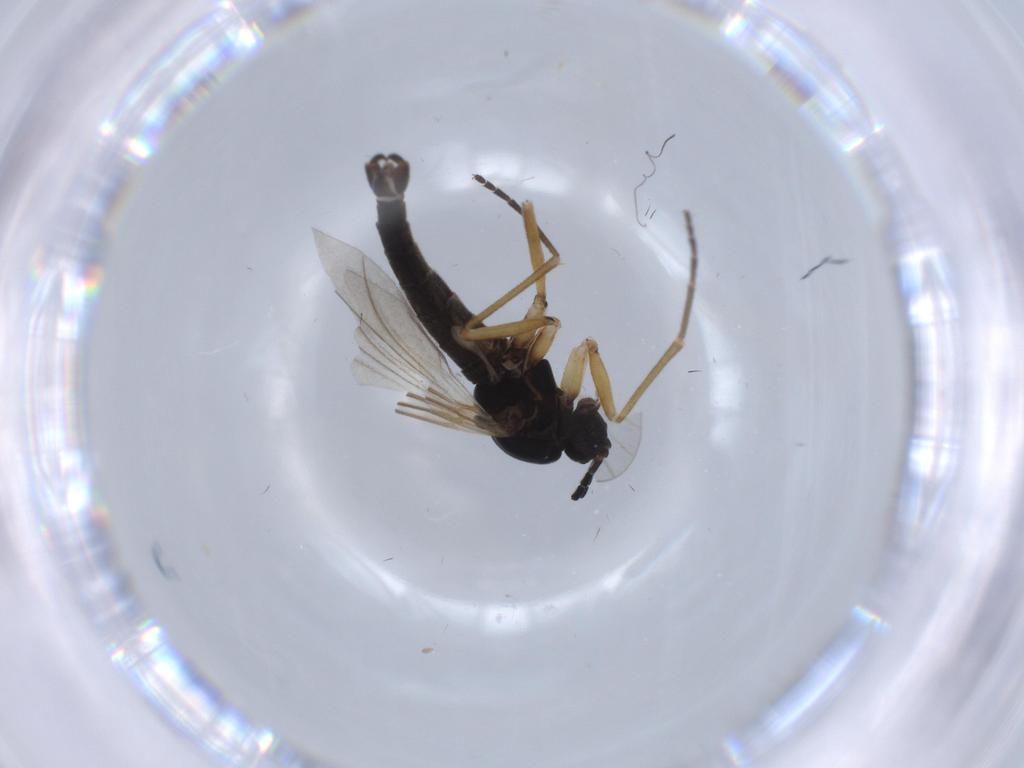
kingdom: Animalia
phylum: Arthropoda
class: Insecta
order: Diptera
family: Sciaridae
